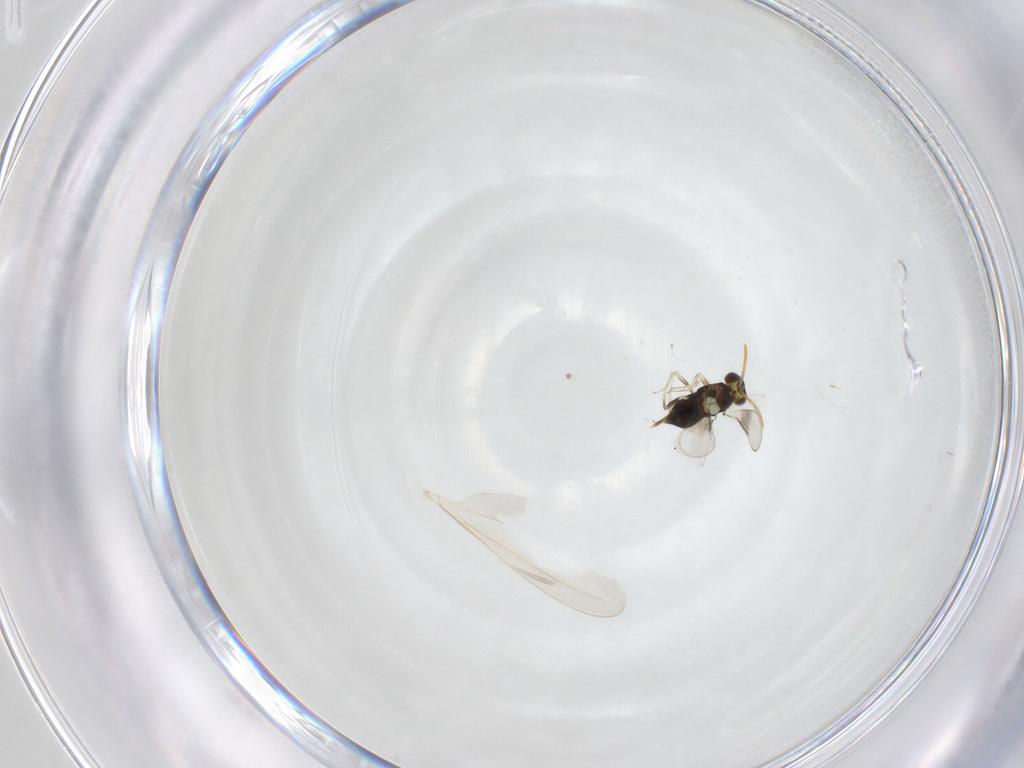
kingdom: Animalia
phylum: Arthropoda
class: Insecta
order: Hymenoptera
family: Aphelinidae
